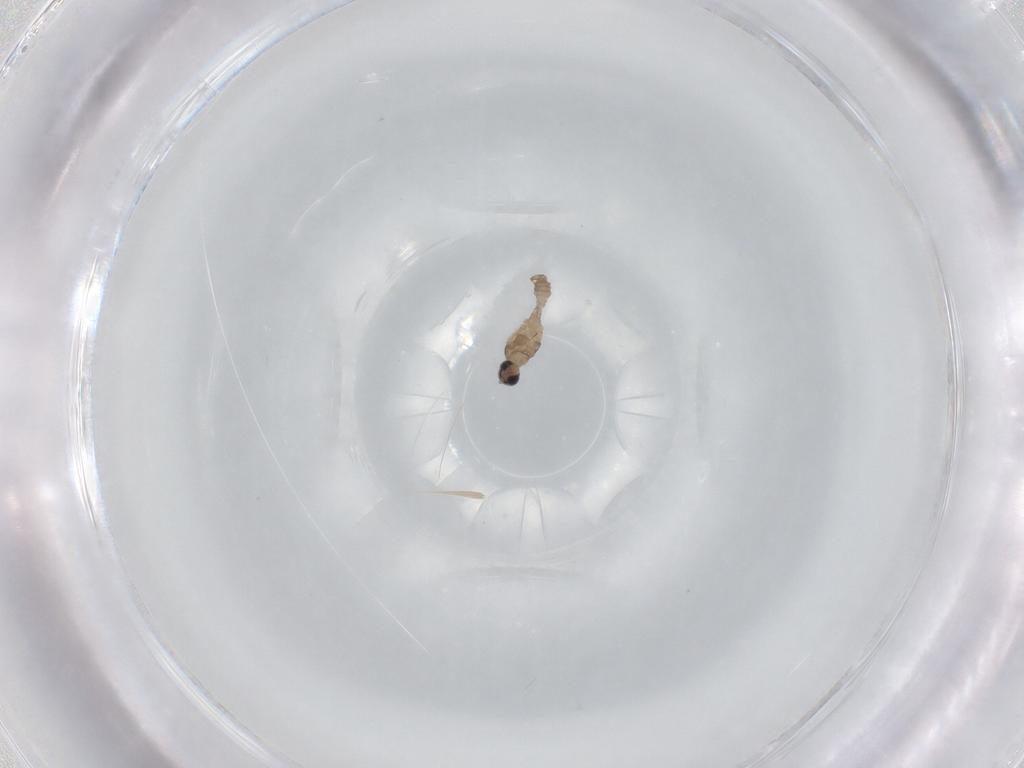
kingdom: Animalia
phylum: Arthropoda
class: Insecta
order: Diptera
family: Cecidomyiidae
